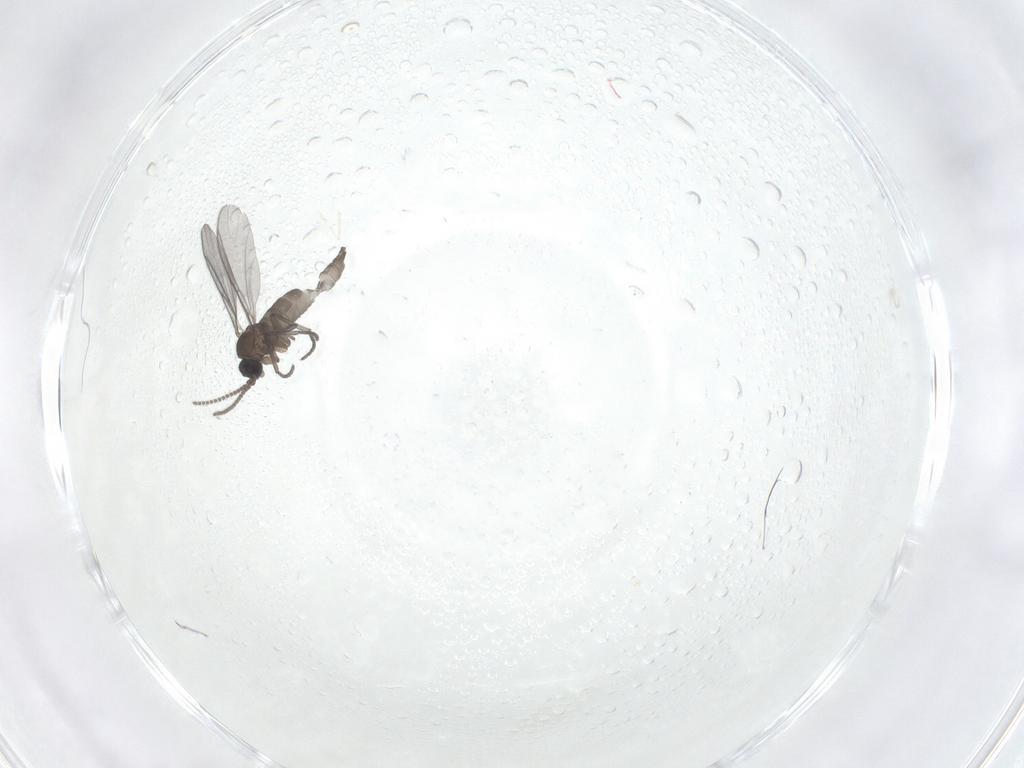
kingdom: Animalia
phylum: Arthropoda
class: Insecta
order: Diptera
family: Sciaridae
